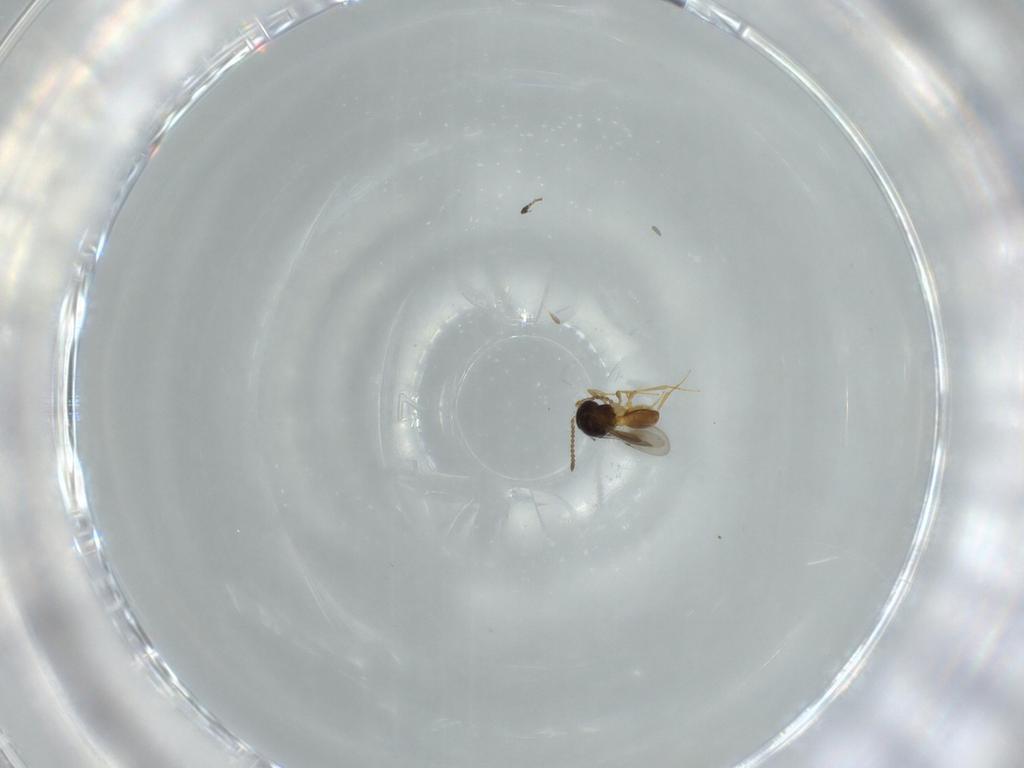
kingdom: Animalia
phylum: Arthropoda
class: Insecta
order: Hymenoptera
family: Scelionidae
